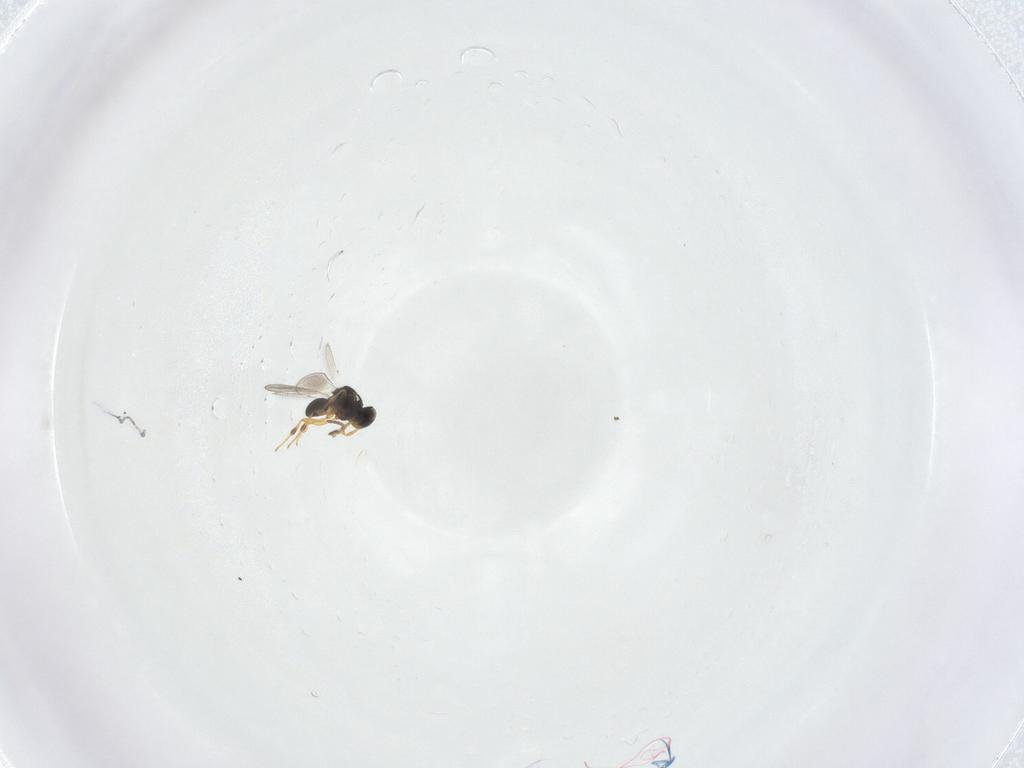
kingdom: Animalia
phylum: Arthropoda
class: Insecta
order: Hymenoptera
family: Platygastridae
